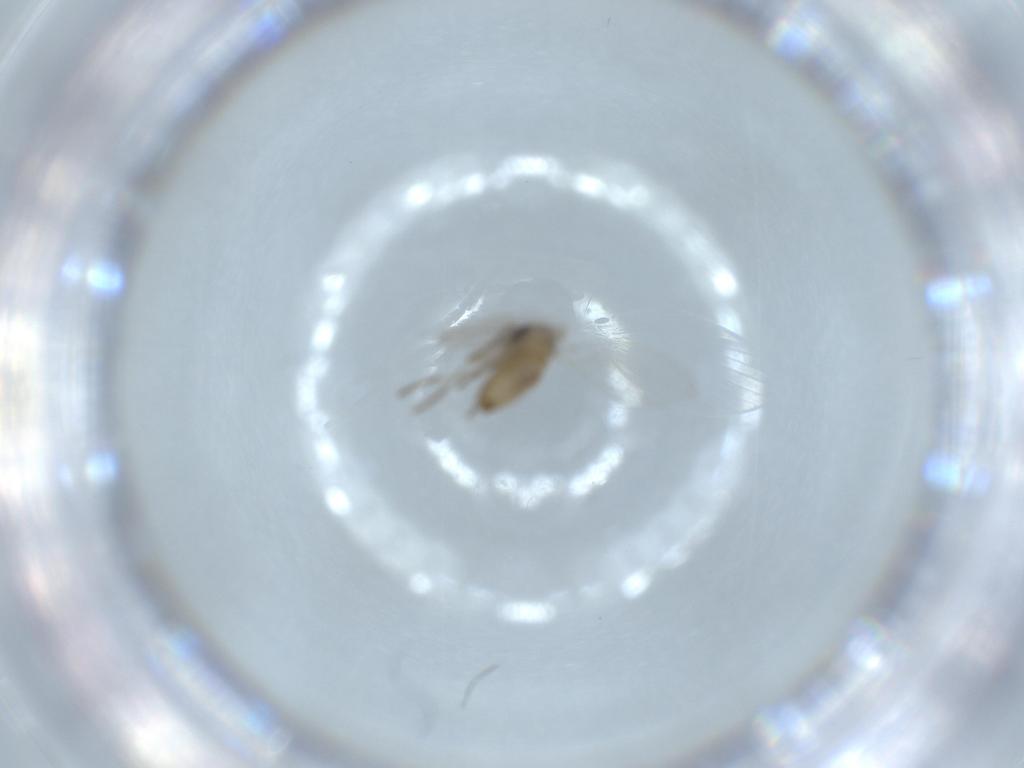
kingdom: Animalia
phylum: Arthropoda
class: Insecta
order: Diptera
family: Psychodidae
